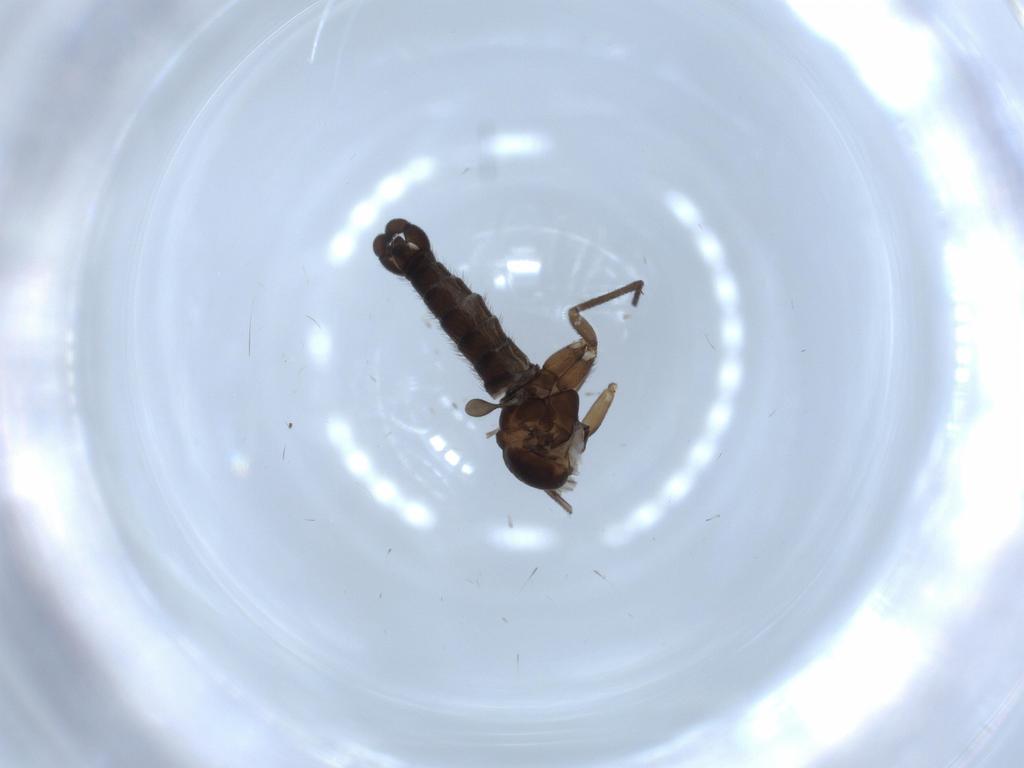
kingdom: Animalia
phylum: Arthropoda
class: Insecta
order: Diptera
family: Sciaridae
